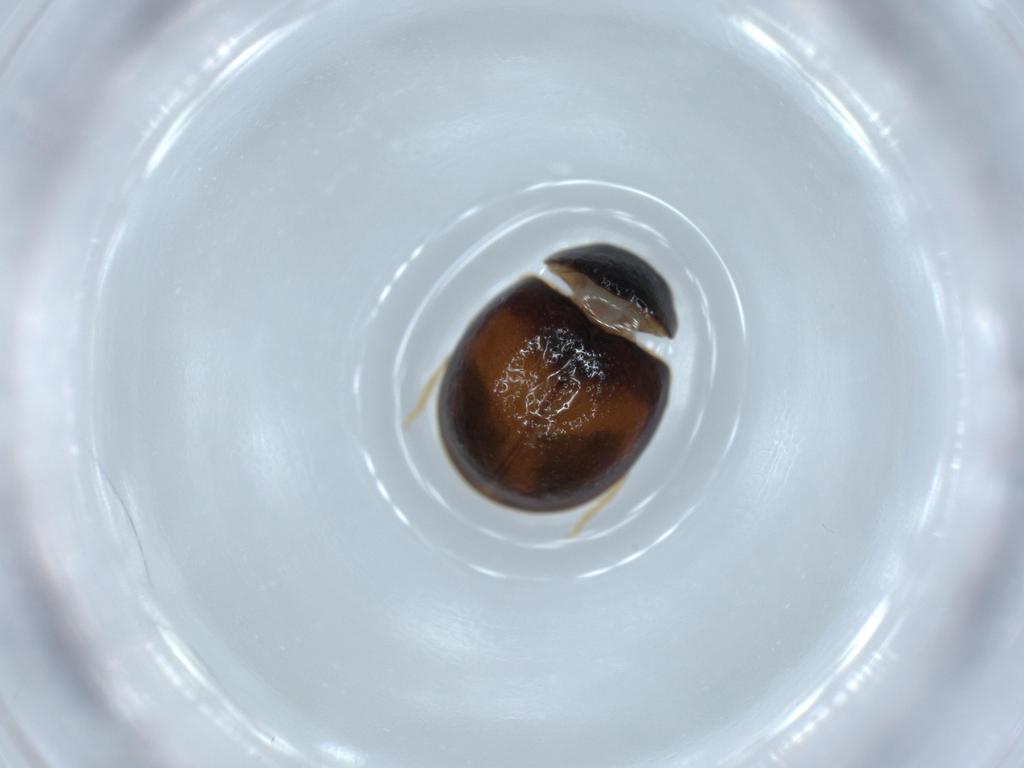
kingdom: Animalia
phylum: Arthropoda
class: Insecta
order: Coleoptera
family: Coccinellidae
